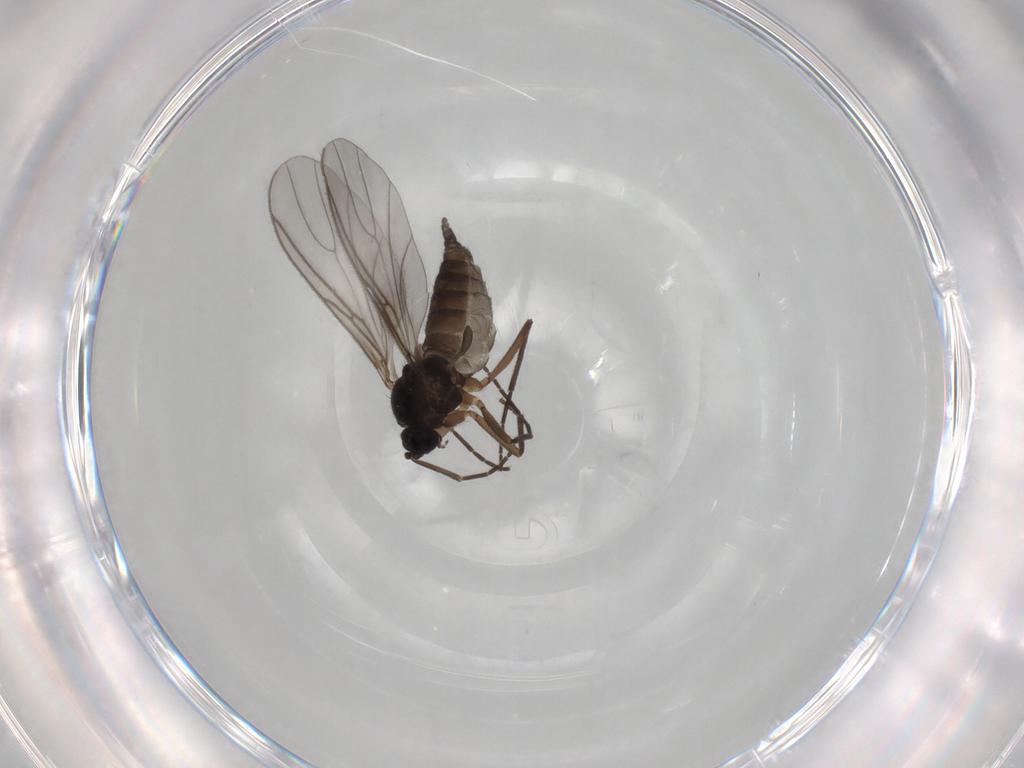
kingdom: Animalia
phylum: Arthropoda
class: Insecta
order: Diptera
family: Sciaridae
